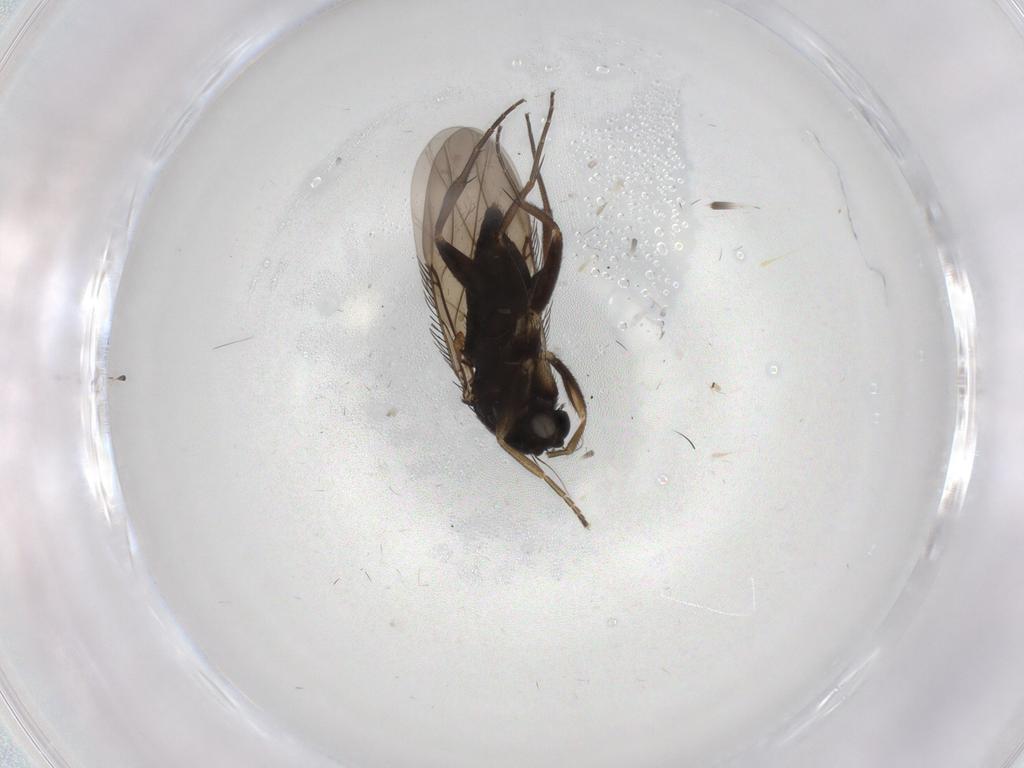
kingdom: Animalia
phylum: Arthropoda
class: Insecta
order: Diptera
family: Phoridae
